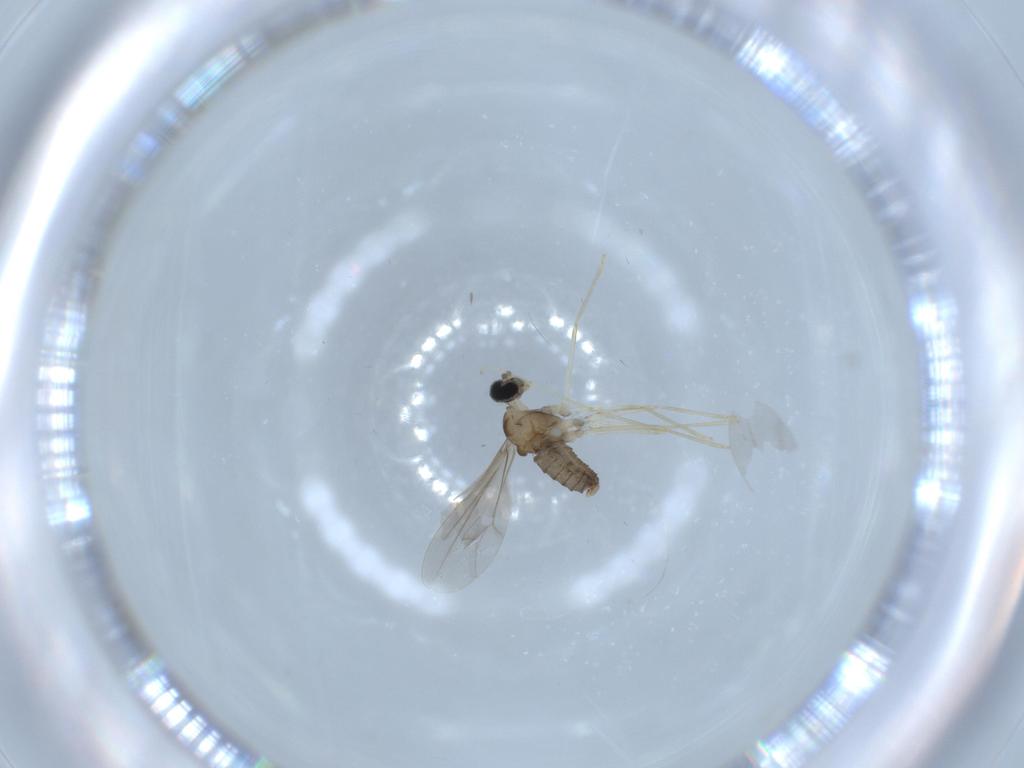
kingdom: Animalia
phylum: Arthropoda
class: Insecta
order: Diptera
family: Cecidomyiidae
